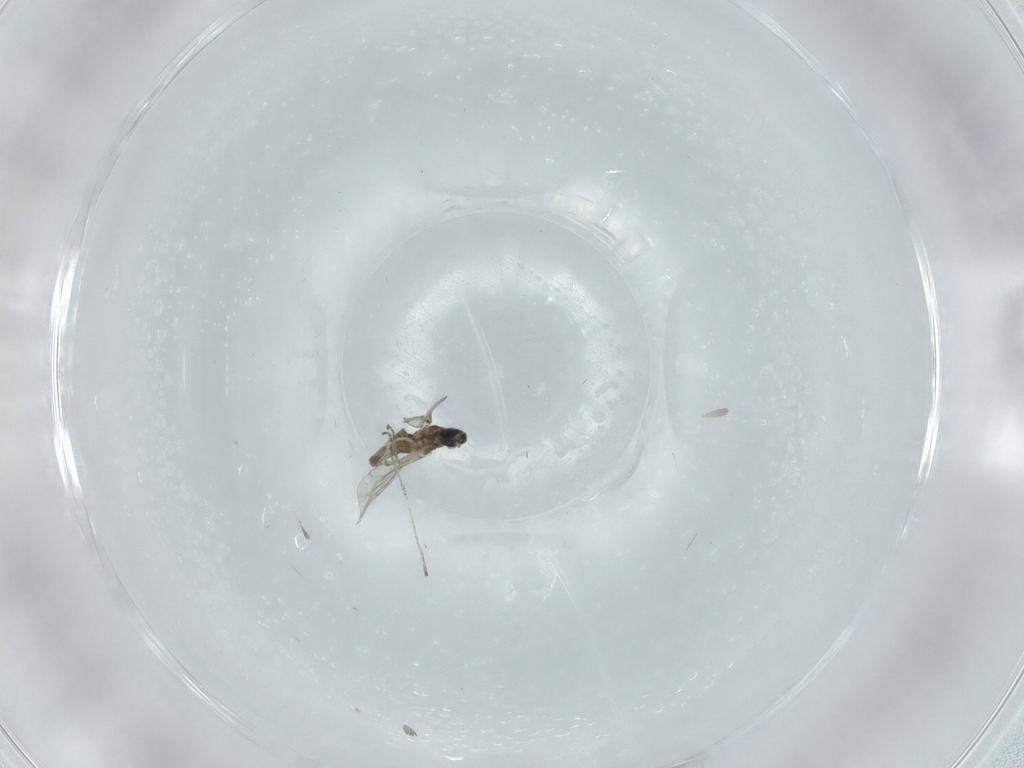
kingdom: Animalia
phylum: Arthropoda
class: Insecta
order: Diptera
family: Cecidomyiidae
